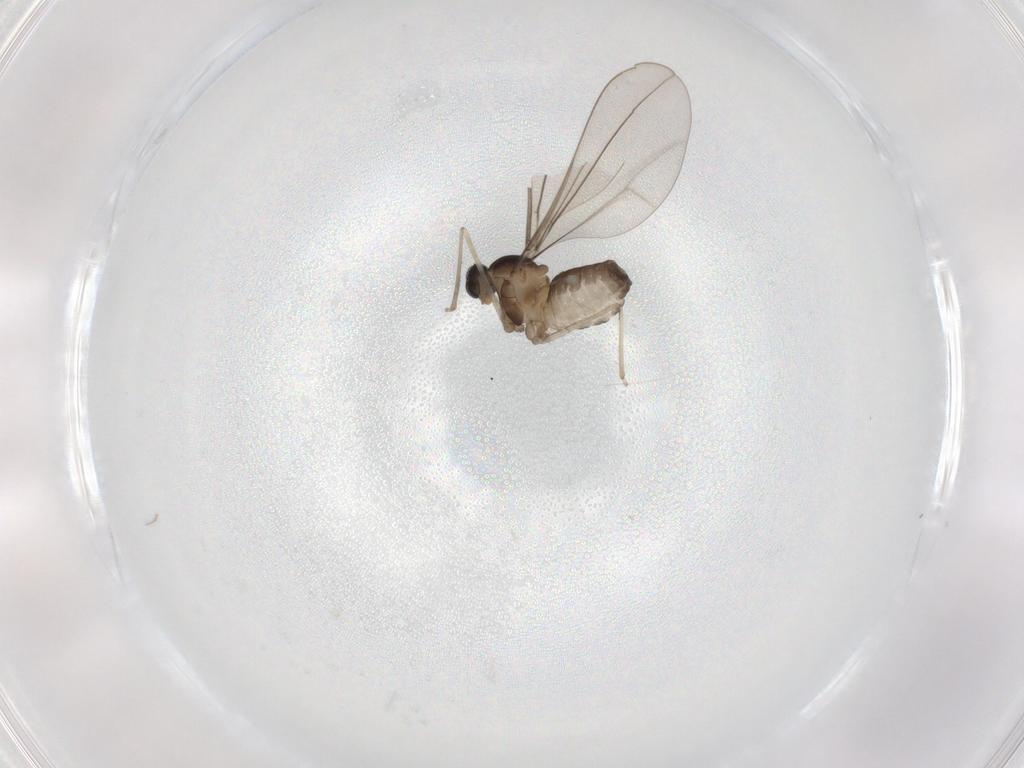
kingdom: Animalia
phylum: Arthropoda
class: Insecta
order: Diptera
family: Cecidomyiidae
